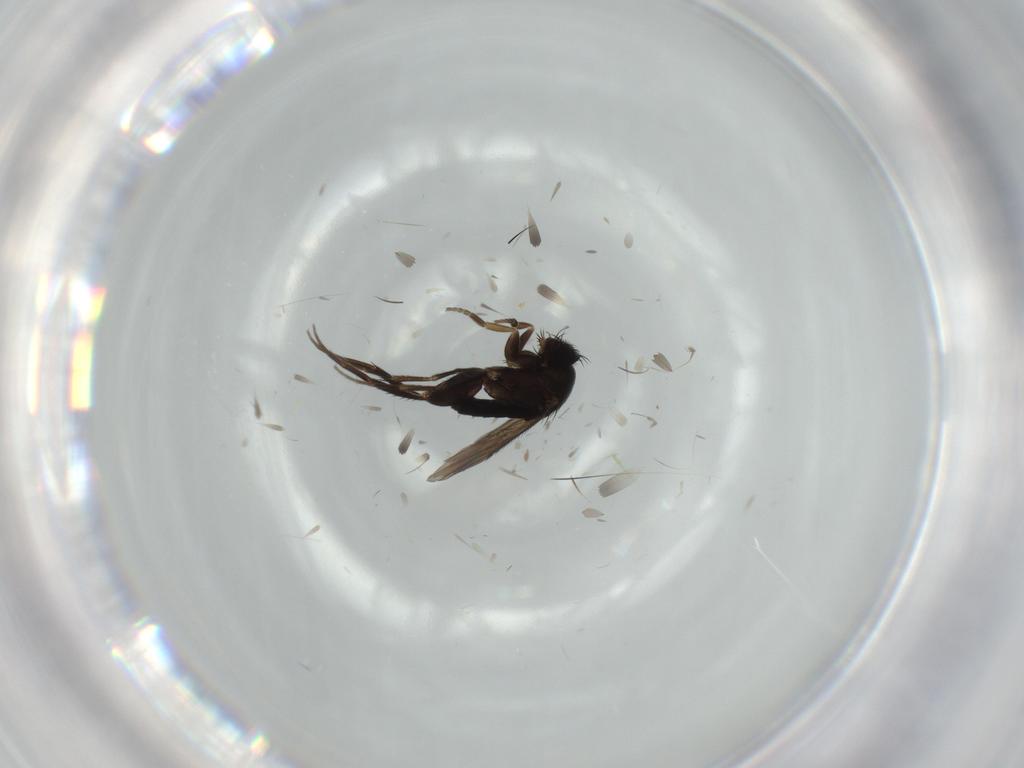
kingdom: Animalia
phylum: Arthropoda
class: Insecta
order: Diptera
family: Phoridae
